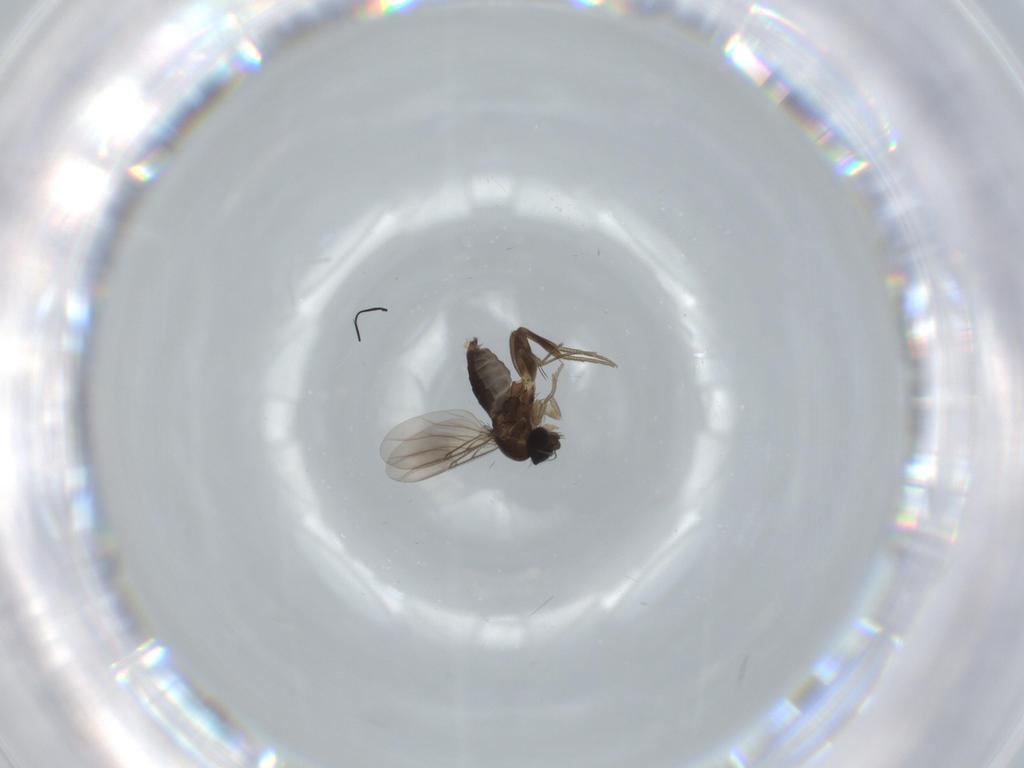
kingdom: Animalia
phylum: Arthropoda
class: Insecta
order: Diptera
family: Phoridae
